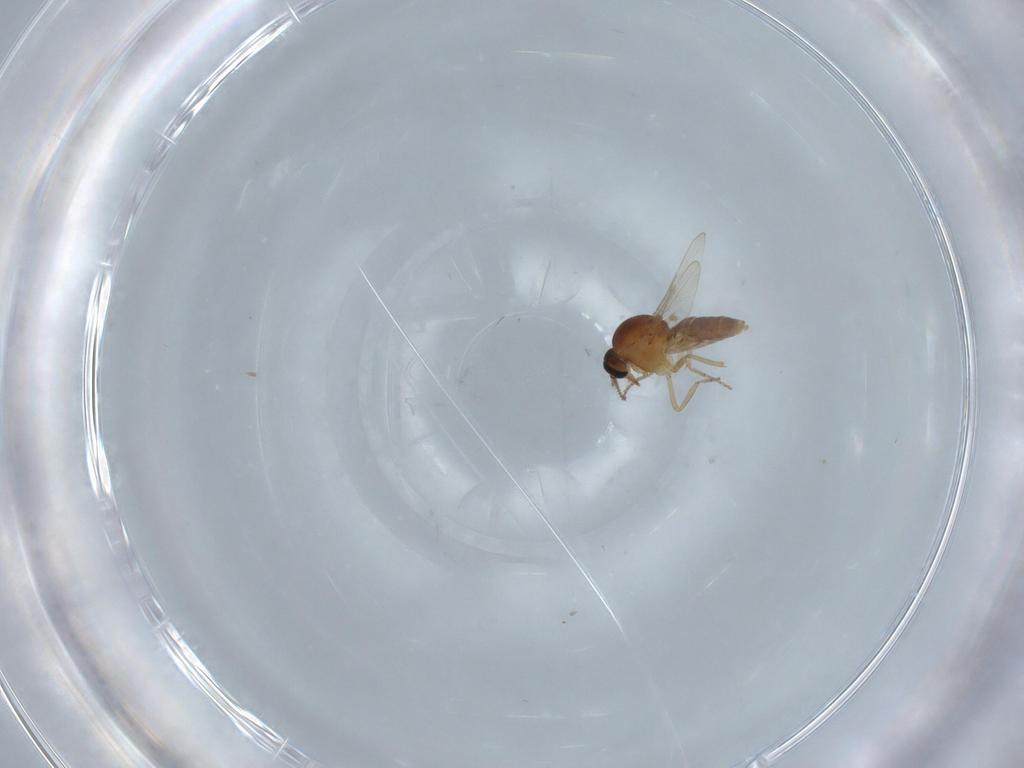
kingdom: Animalia
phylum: Arthropoda
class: Insecta
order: Diptera
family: Ceratopogonidae
